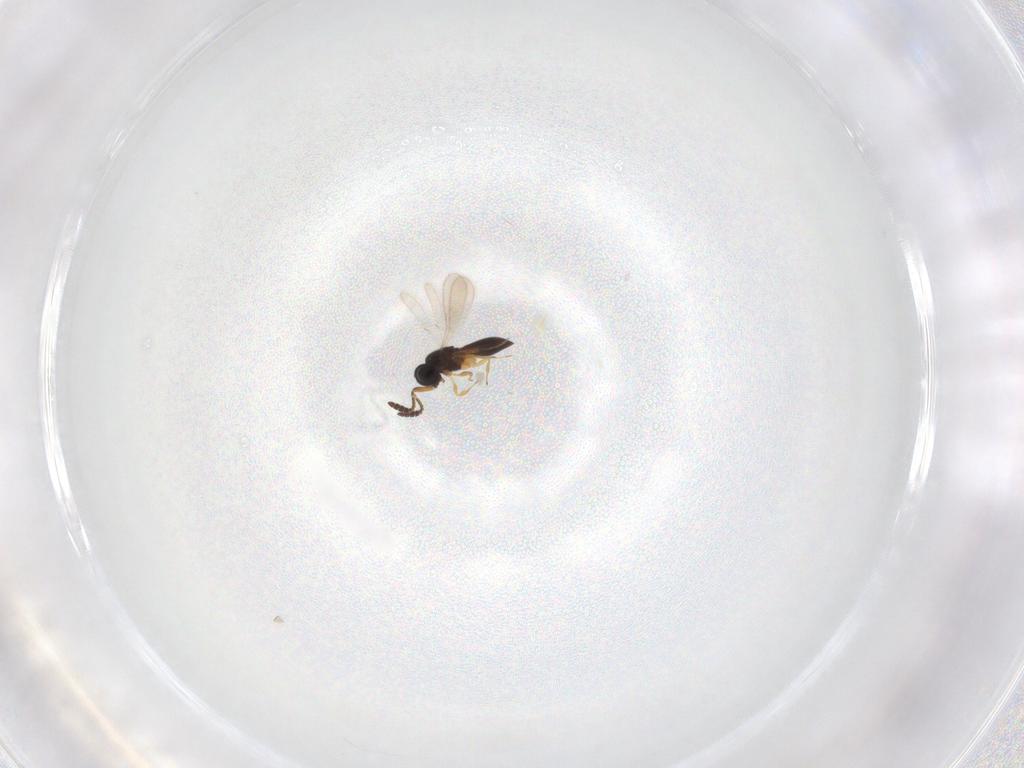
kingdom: Animalia
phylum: Arthropoda
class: Insecta
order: Hymenoptera
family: Scelionidae
